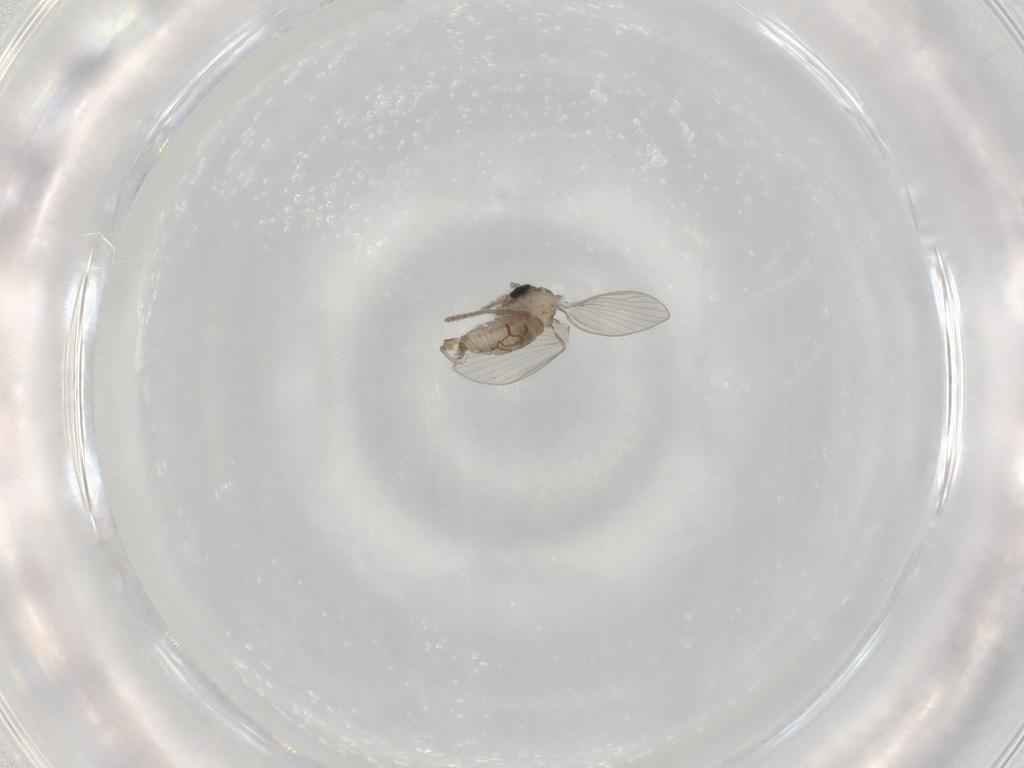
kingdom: Animalia
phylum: Arthropoda
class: Insecta
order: Diptera
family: Psychodidae
